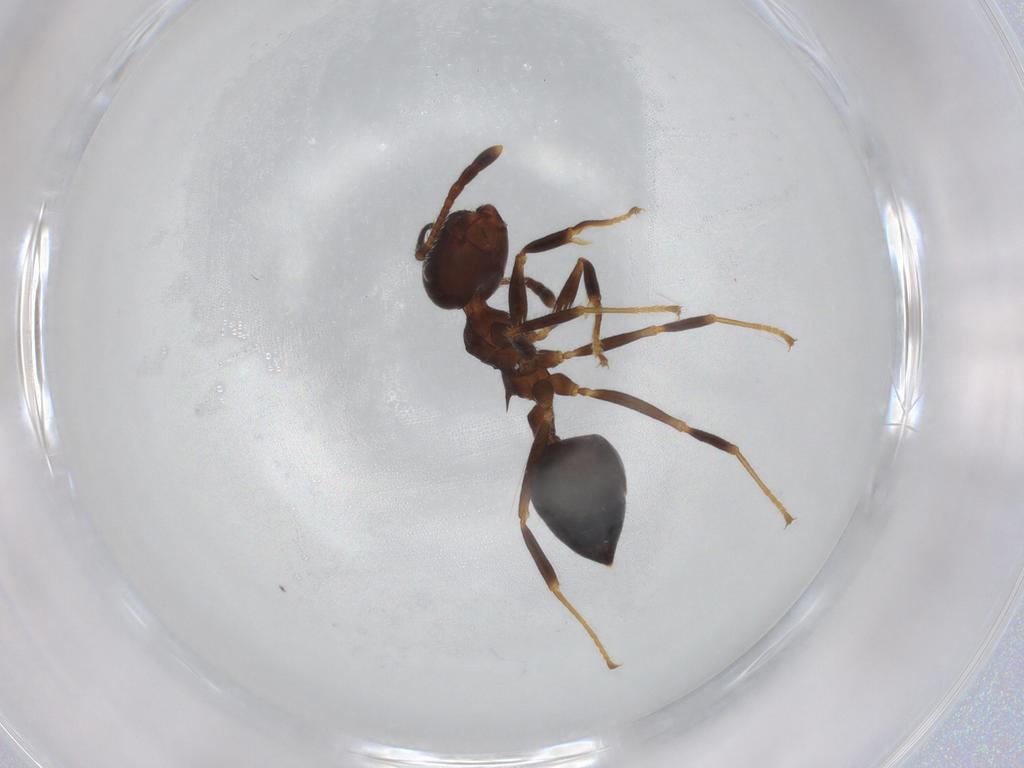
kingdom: Animalia
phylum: Arthropoda
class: Insecta
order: Hymenoptera
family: Formicidae
